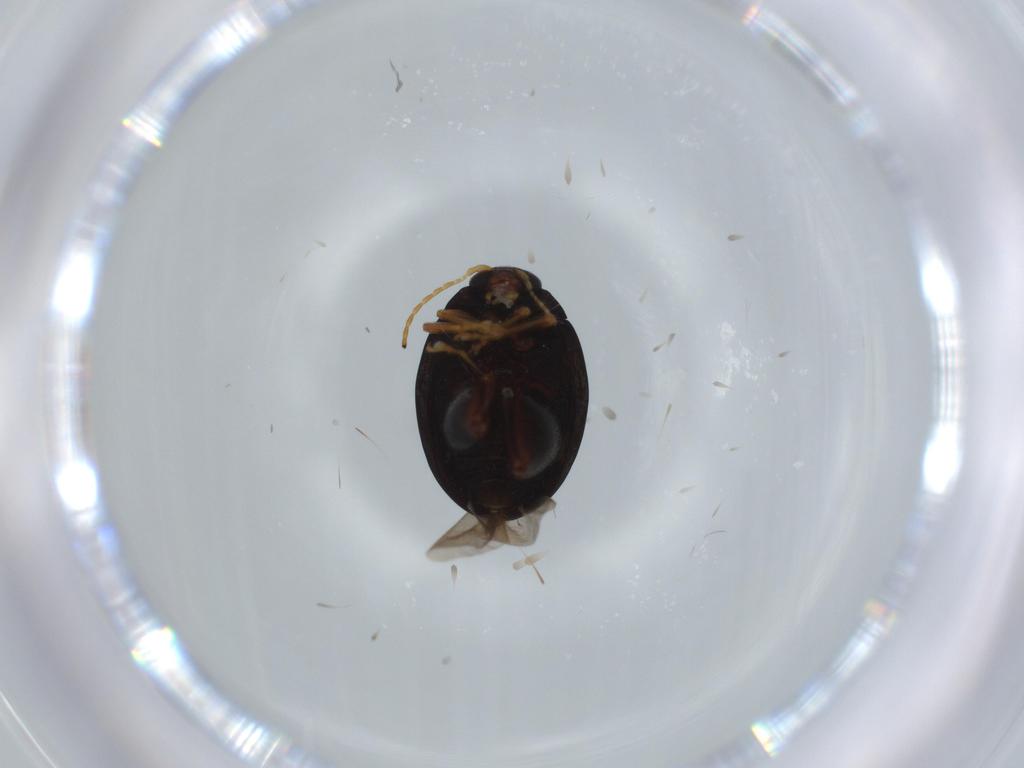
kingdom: Animalia
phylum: Arthropoda
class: Insecta
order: Coleoptera
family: Chrysomelidae
